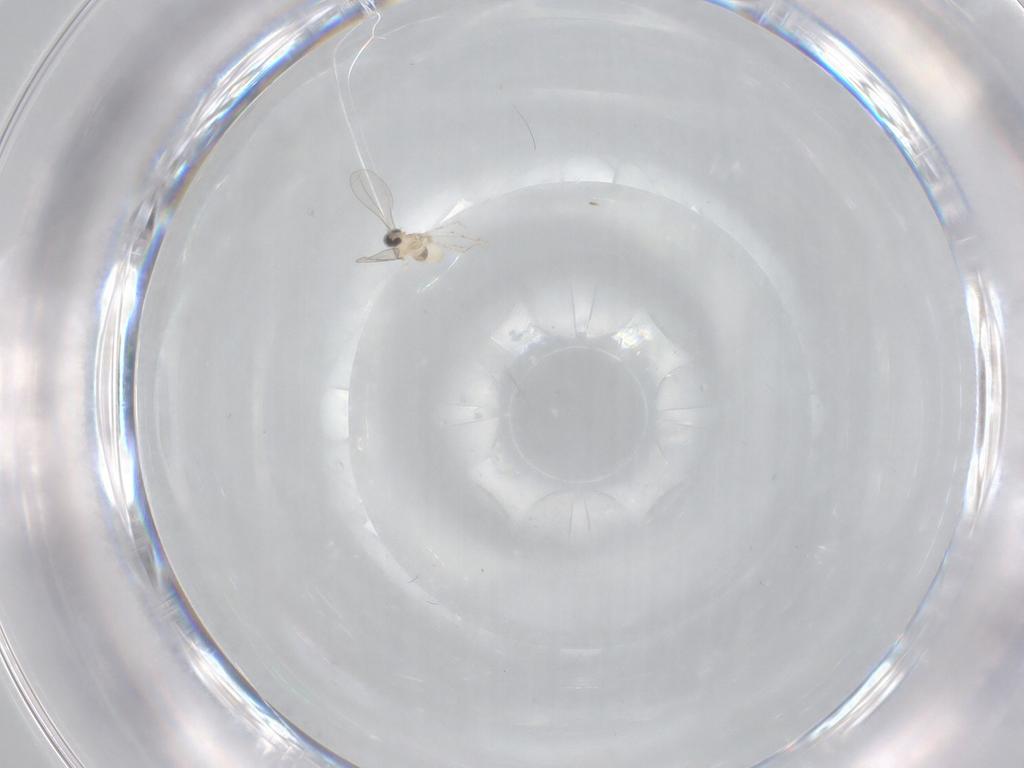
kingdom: Animalia
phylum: Arthropoda
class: Insecta
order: Diptera
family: Cecidomyiidae
